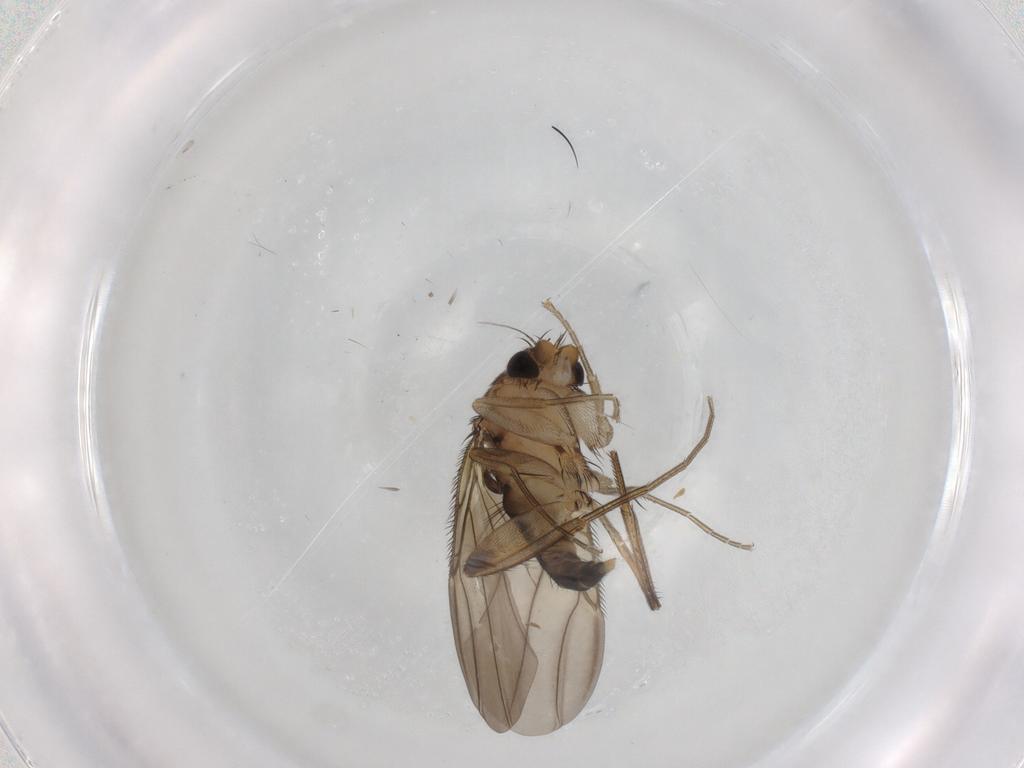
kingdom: Animalia
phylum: Arthropoda
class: Insecta
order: Diptera
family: Phoridae
